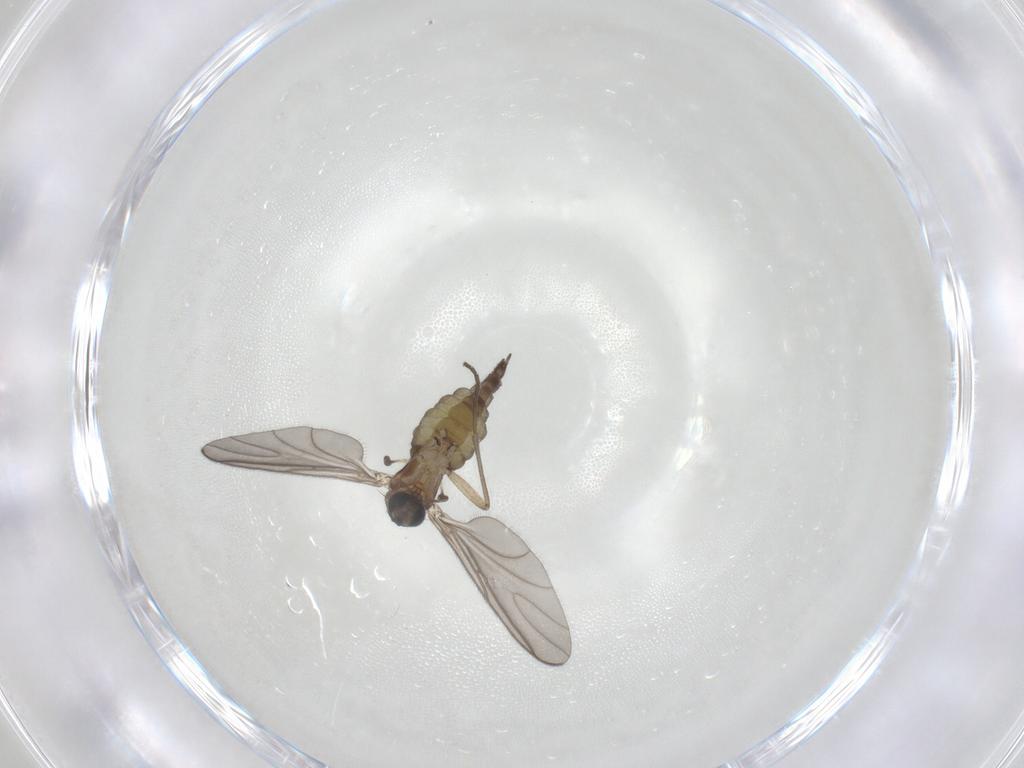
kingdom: Animalia
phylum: Arthropoda
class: Insecta
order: Diptera
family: Sciaridae
